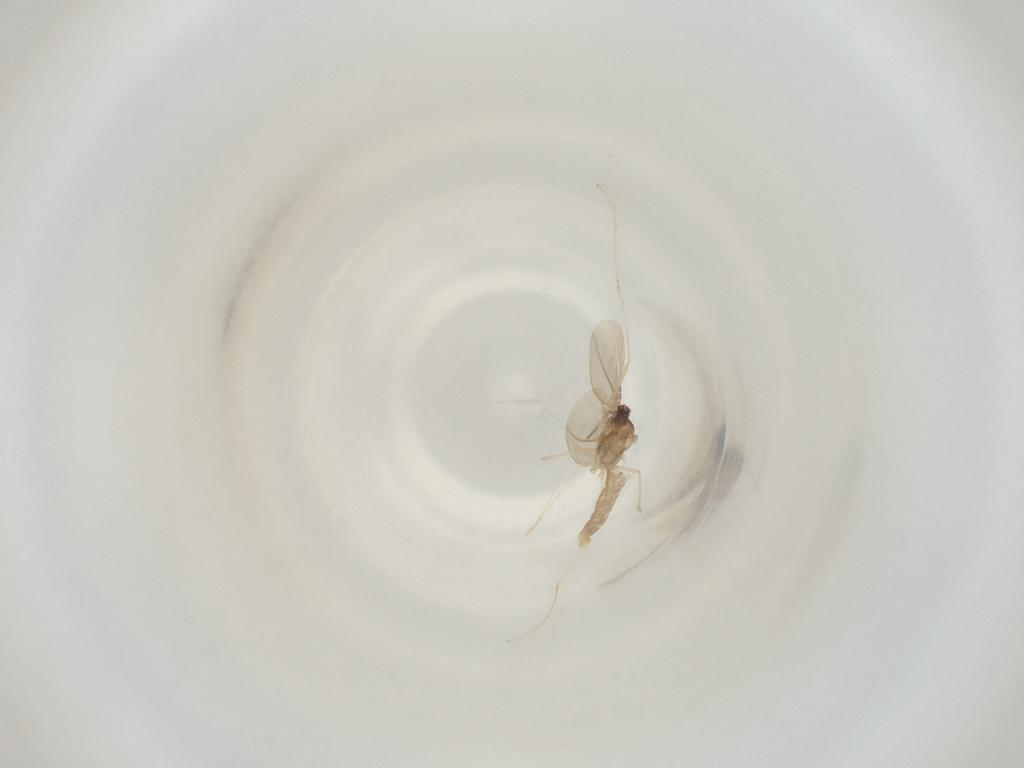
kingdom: Animalia
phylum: Arthropoda
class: Insecta
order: Diptera
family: Cecidomyiidae
